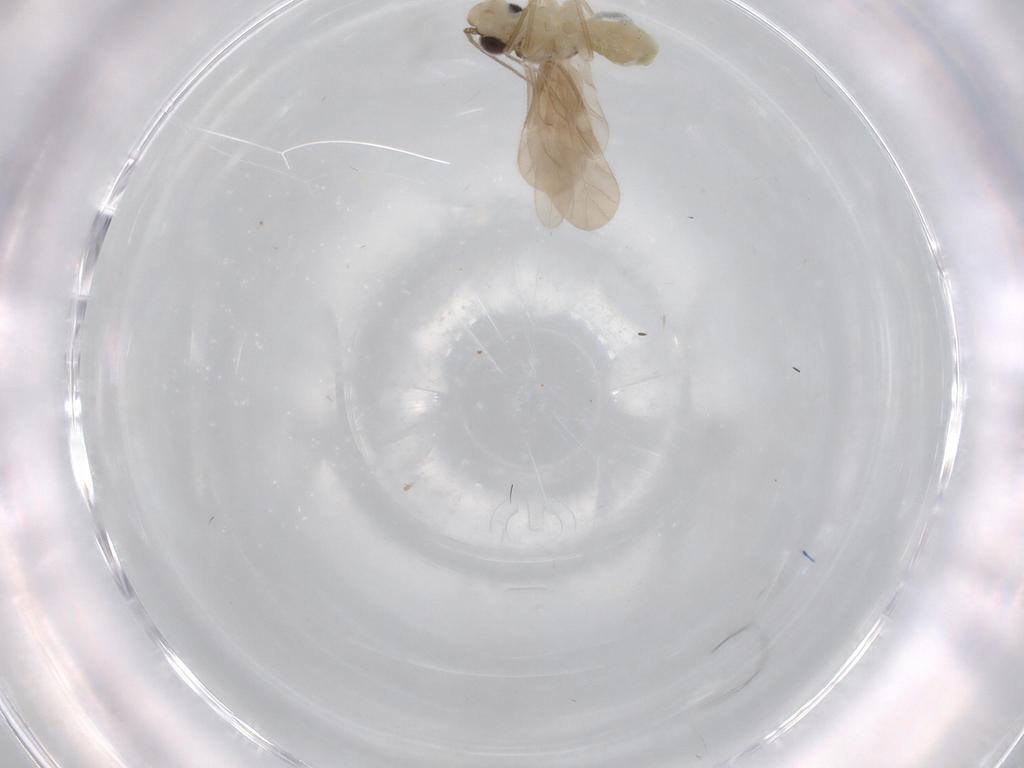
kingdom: Animalia
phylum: Arthropoda
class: Insecta
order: Psocodea
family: Caeciliusidae
